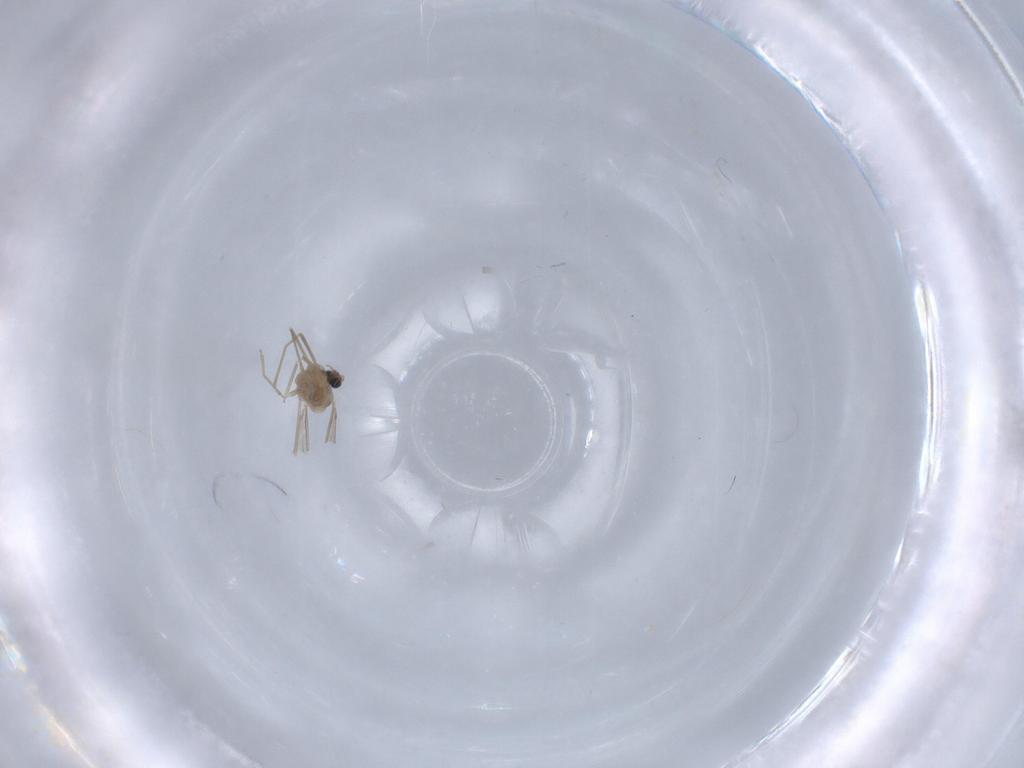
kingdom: Animalia
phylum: Arthropoda
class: Insecta
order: Diptera
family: Cecidomyiidae
